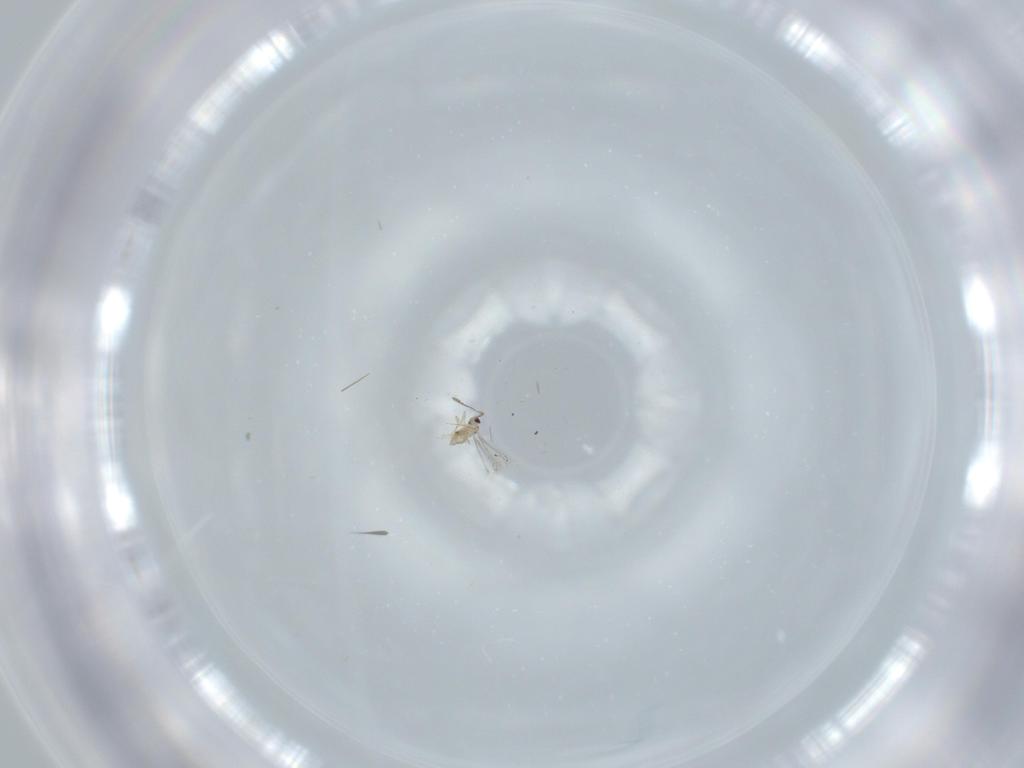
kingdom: Animalia
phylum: Arthropoda
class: Insecta
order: Hymenoptera
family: Mymaridae
